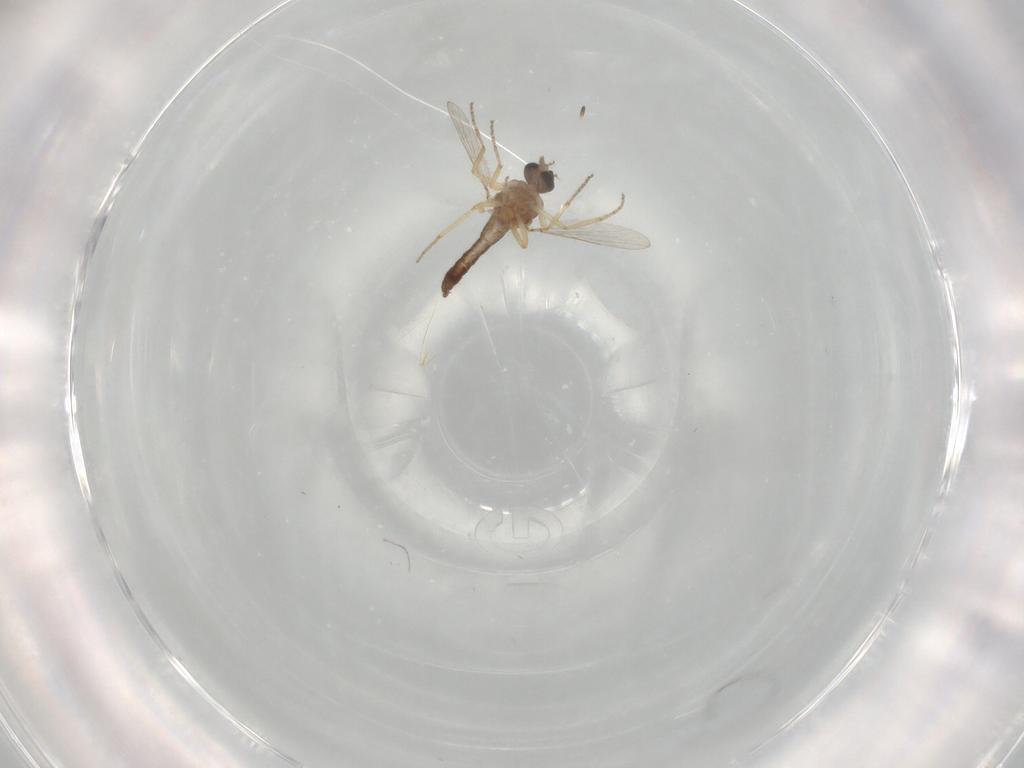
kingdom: Animalia
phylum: Arthropoda
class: Insecta
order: Diptera
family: Ceratopogonidae
